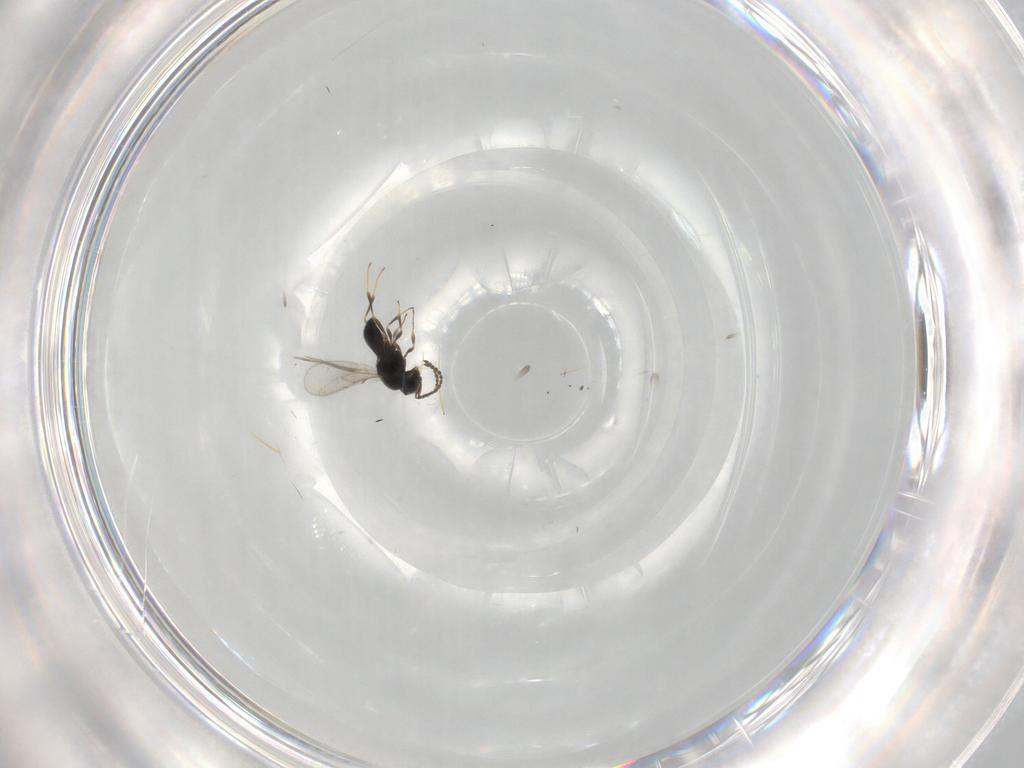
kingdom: Animalia
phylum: Arthropoda
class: Insecta
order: Hymenoptera
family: Scelionidae
